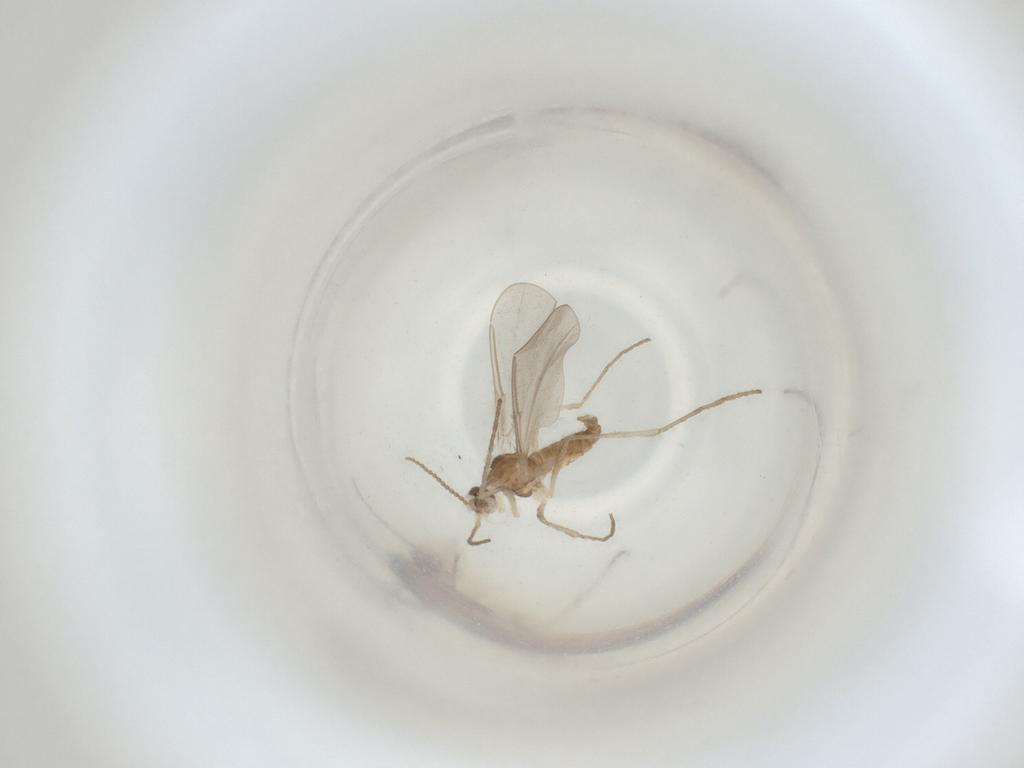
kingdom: Animalia
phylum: Arthropoda
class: Insecta
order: Diptera
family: Cecidomyiidae
